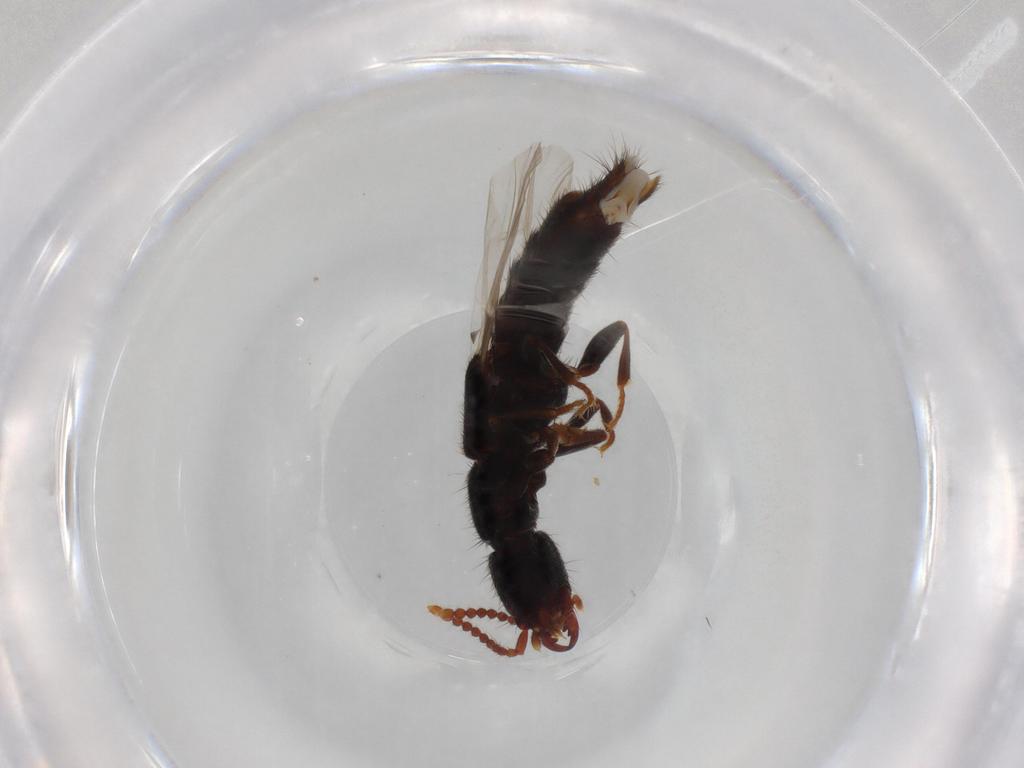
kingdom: Animalia
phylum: Arthropoda
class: Insecta
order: Coleoptera
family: Staphylinidae
